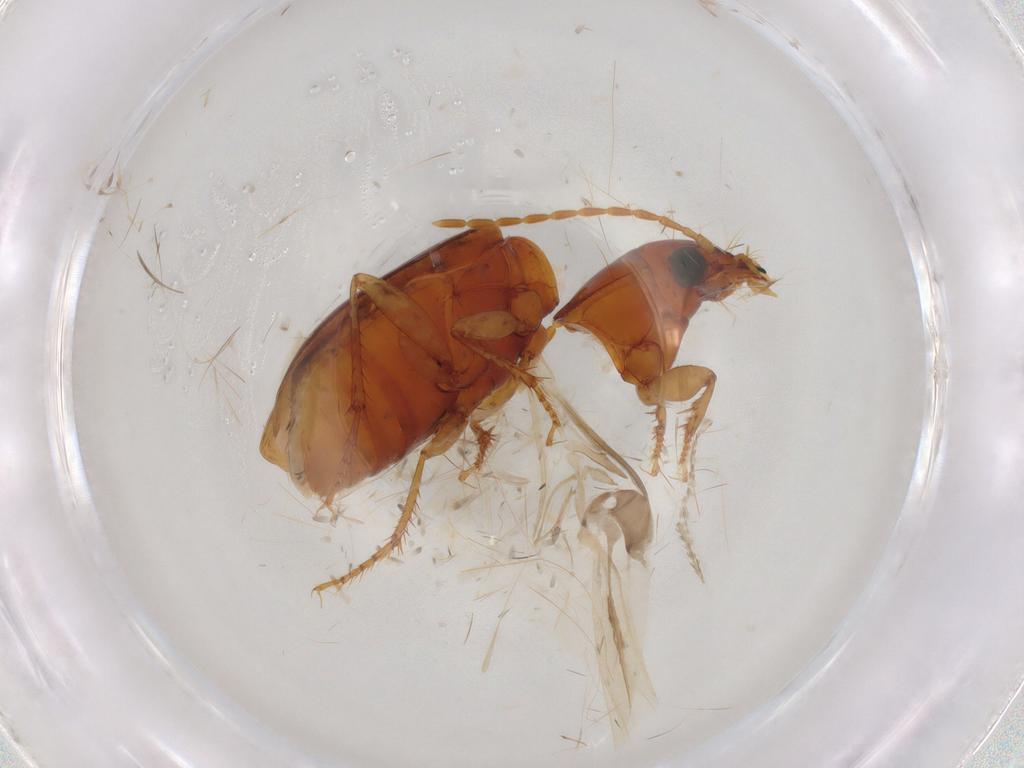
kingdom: Animalia
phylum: Arthropoda
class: Insecta
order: Coleoptera
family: Carabidae
